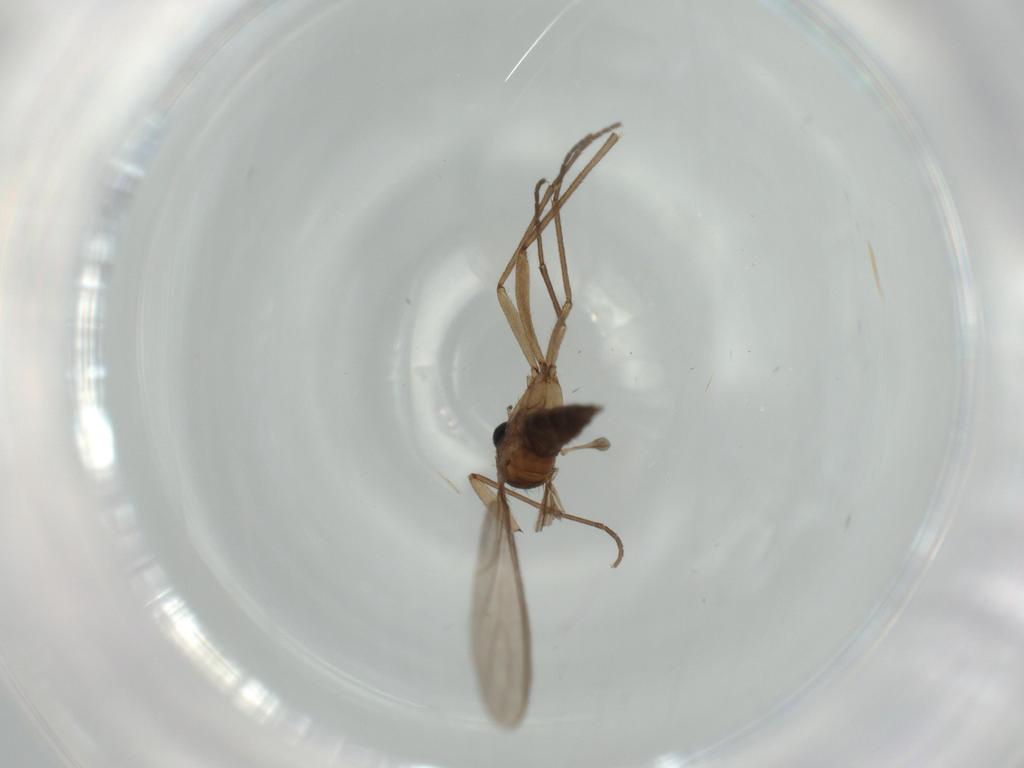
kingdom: Animalia
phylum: Arthropoda
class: Insecta
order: Diptera
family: Sciaridae
